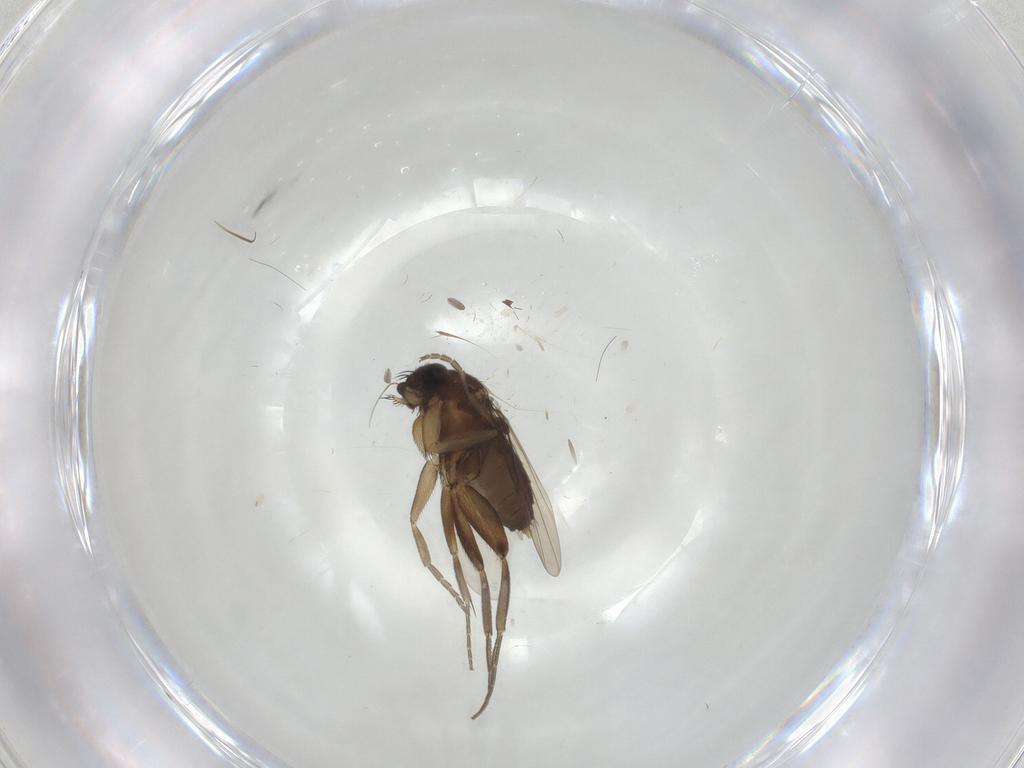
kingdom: Animalia
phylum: Arthropoda
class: Insecta
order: Diptera
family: Phoridae
